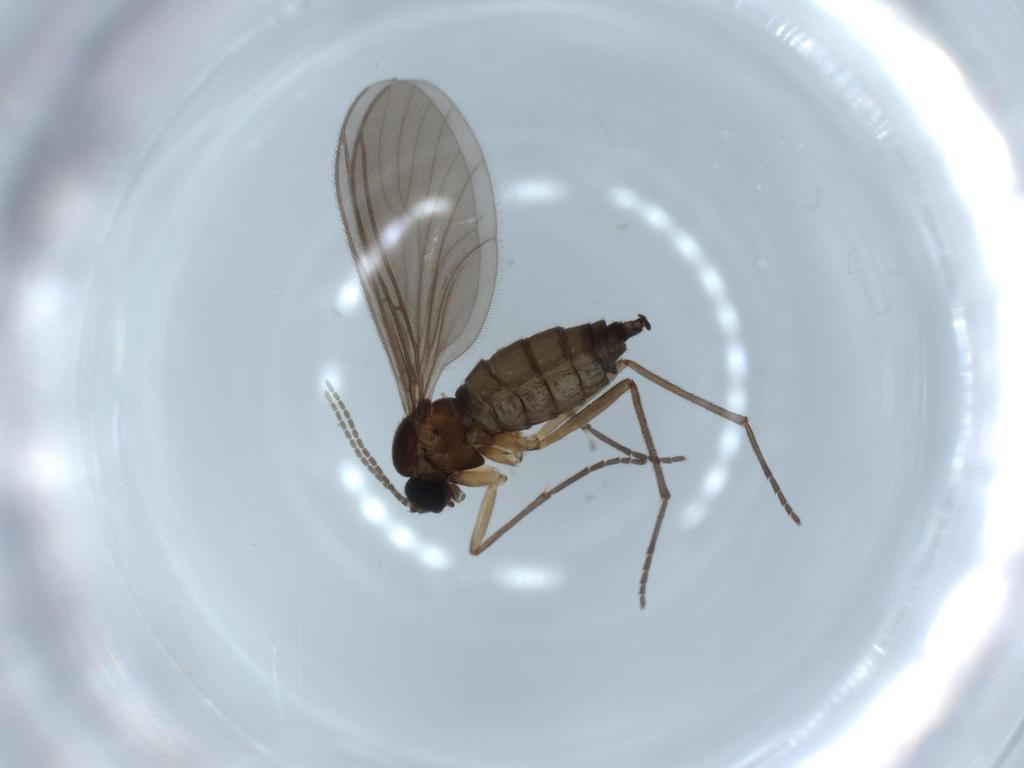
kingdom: Animalia
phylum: Arthropoda
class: Insecta
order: Diptera
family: Sciaridae
